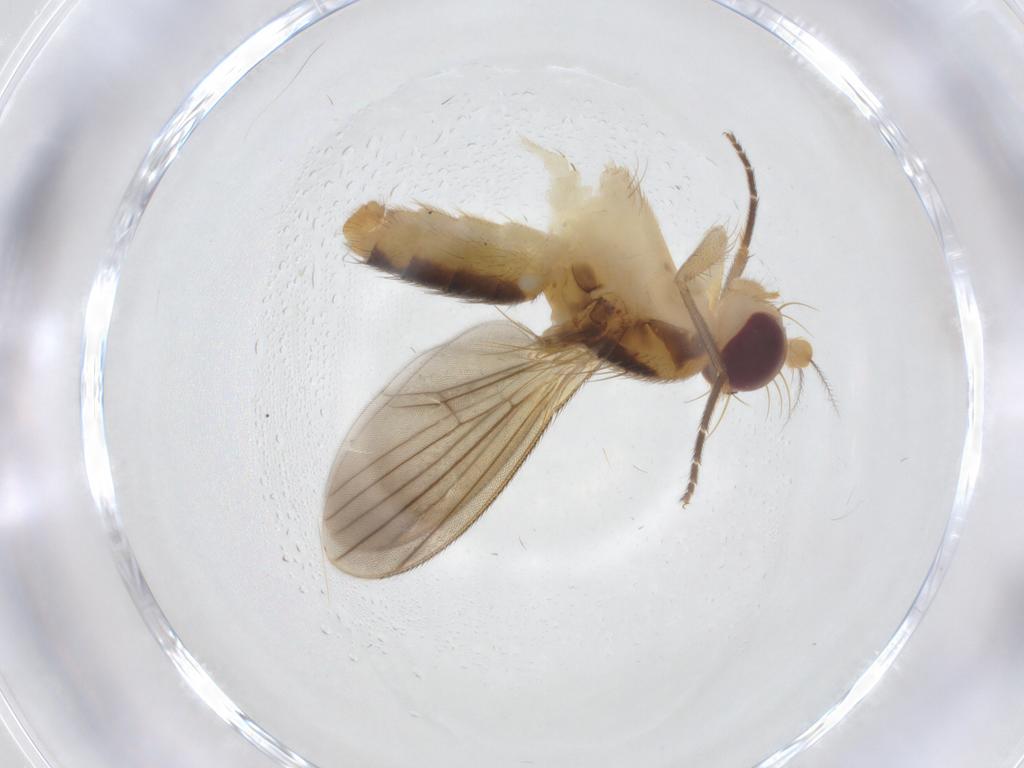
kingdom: Animalia
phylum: Arthropoda
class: Insecta
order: Diptera
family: Clusiidae
